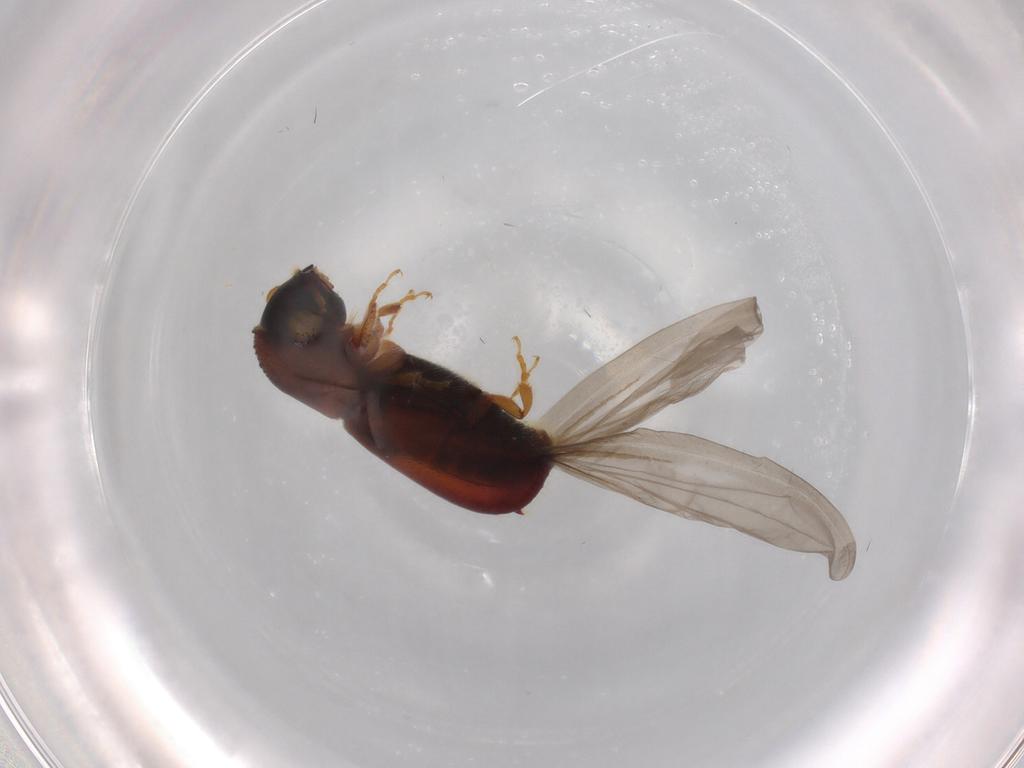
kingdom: Animalia
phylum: Arthropoda
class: Insecta
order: Coleoptera
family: Curculionidae
